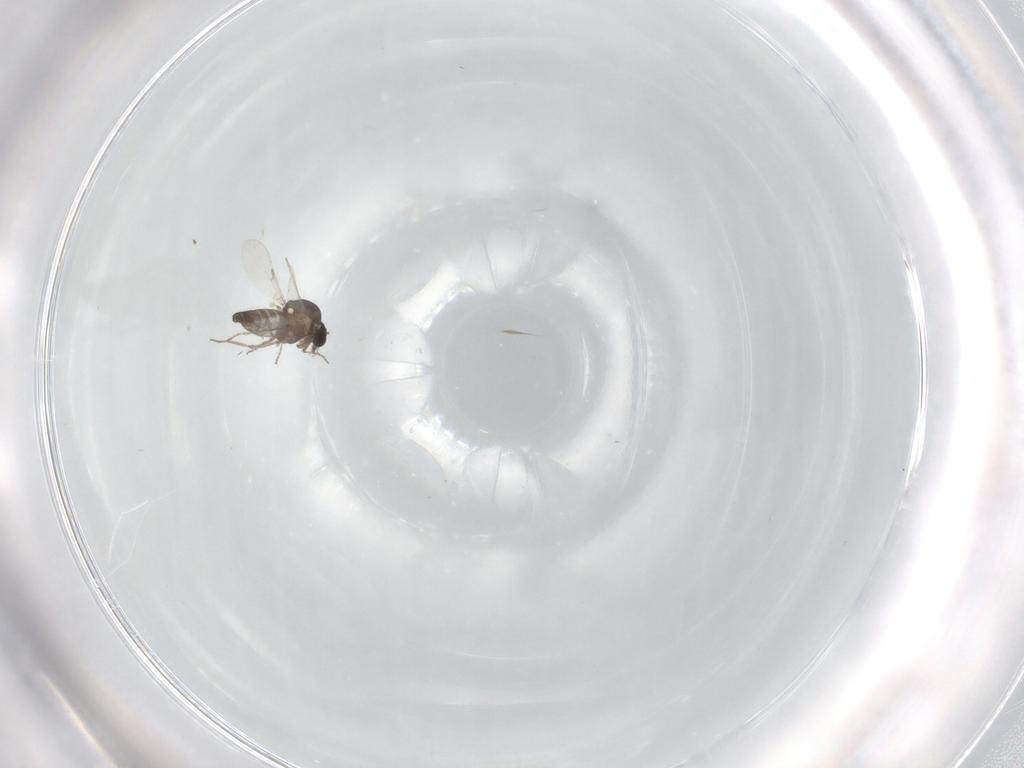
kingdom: Animalia
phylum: Arthropoda
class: Insecta
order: Diptera
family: Ceratopogonidae
